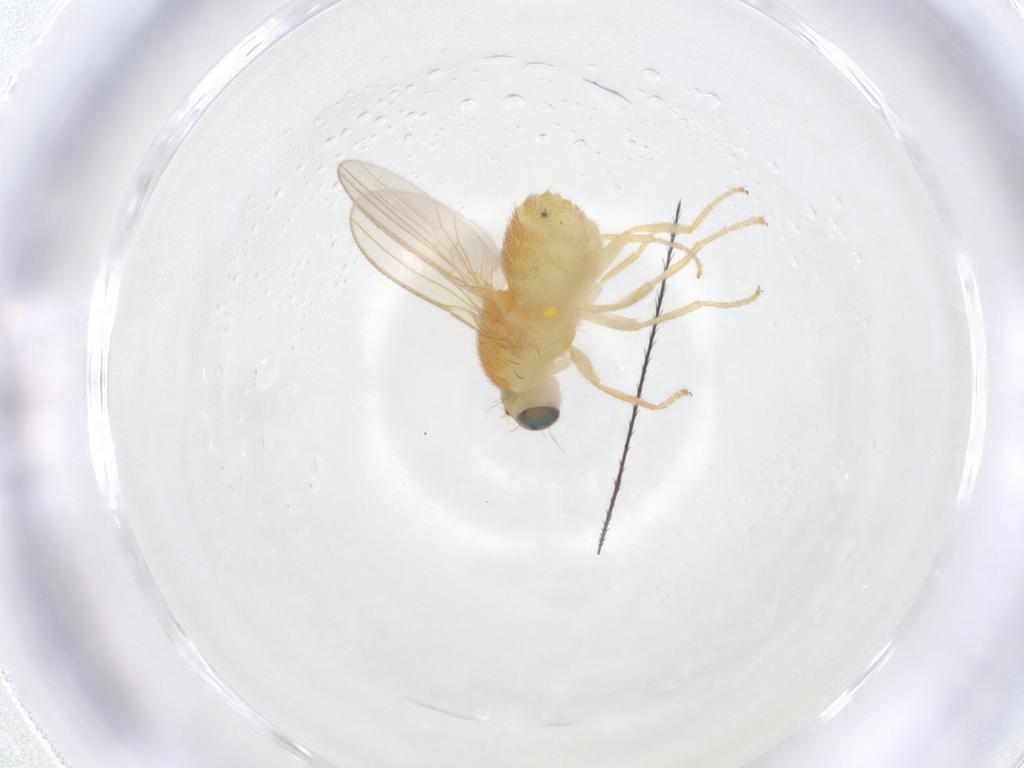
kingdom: Animalia
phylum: Arthropoda
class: Insecta
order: Diptera
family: Chyromyidae
